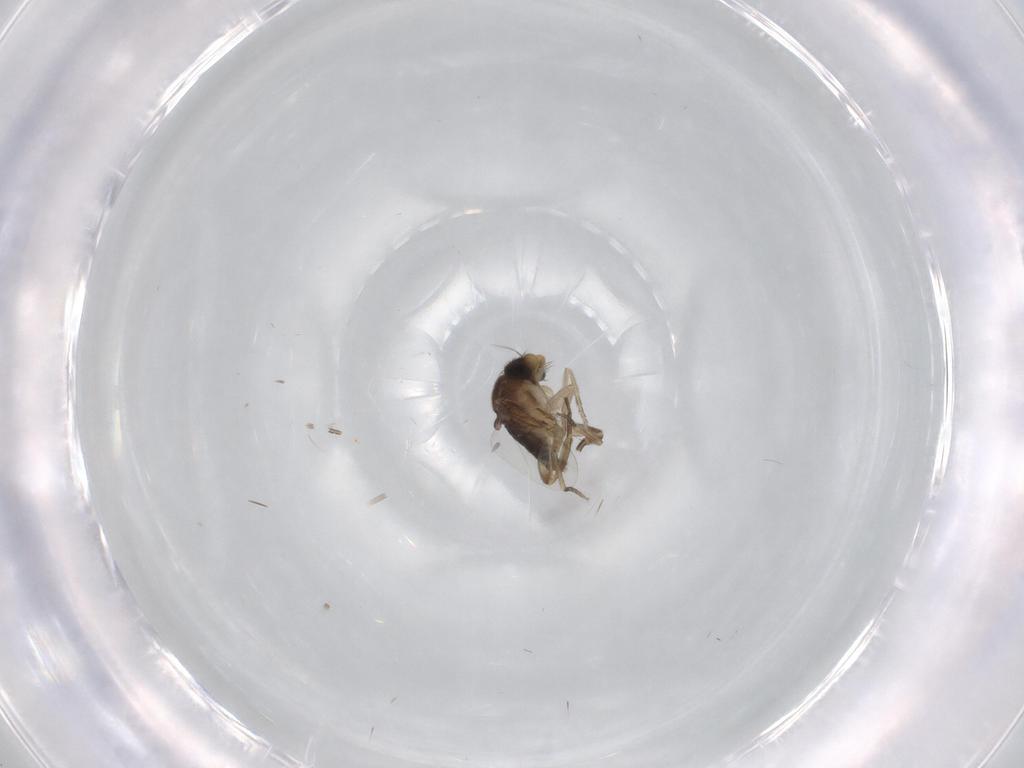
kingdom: Animalia
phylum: Arthropoda
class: Insecta
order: Diptera
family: Phoridae
